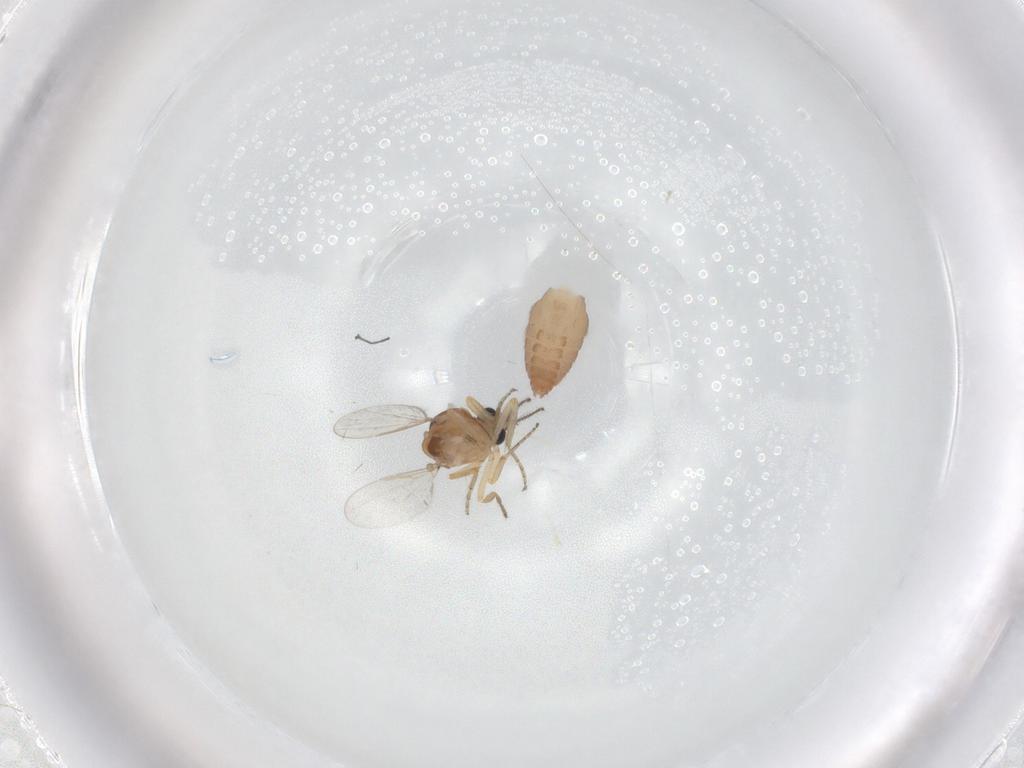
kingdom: Animalia
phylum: Arthropoda
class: Insecta
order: Diptera
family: Ceratopogonidae
